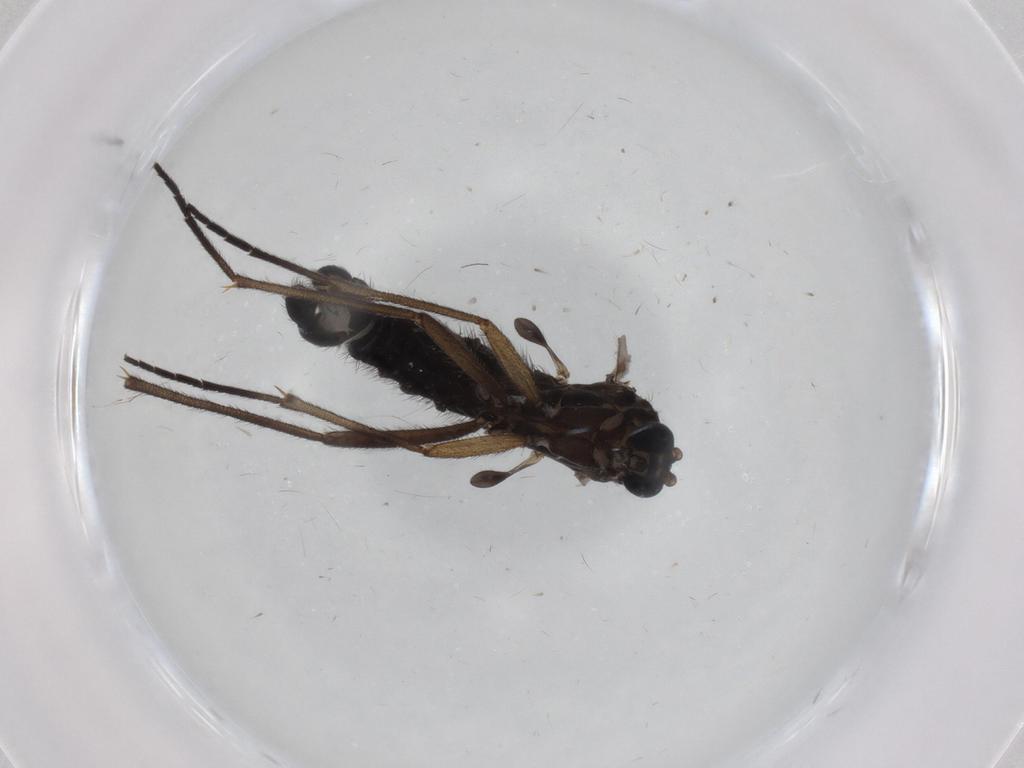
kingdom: Animalia
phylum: Arthropoda
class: Insecta
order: Diptera
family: Sciaridae
